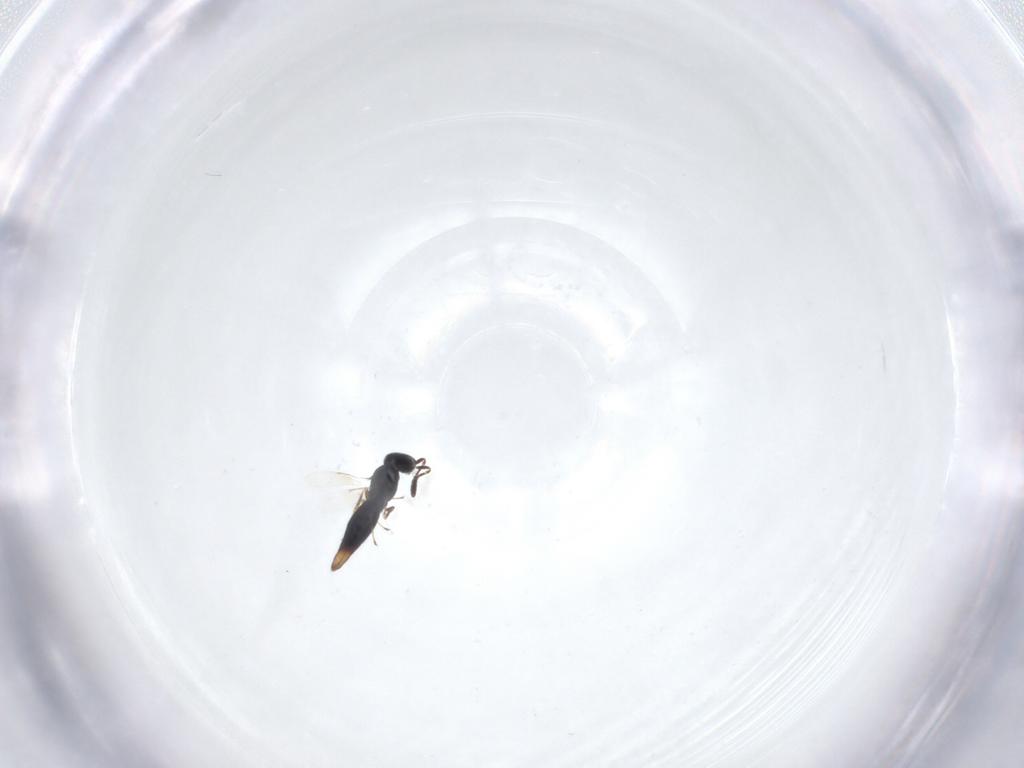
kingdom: Animalia
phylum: Arthropoda
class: Insecta
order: Hymenoptera
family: Scelionidae
